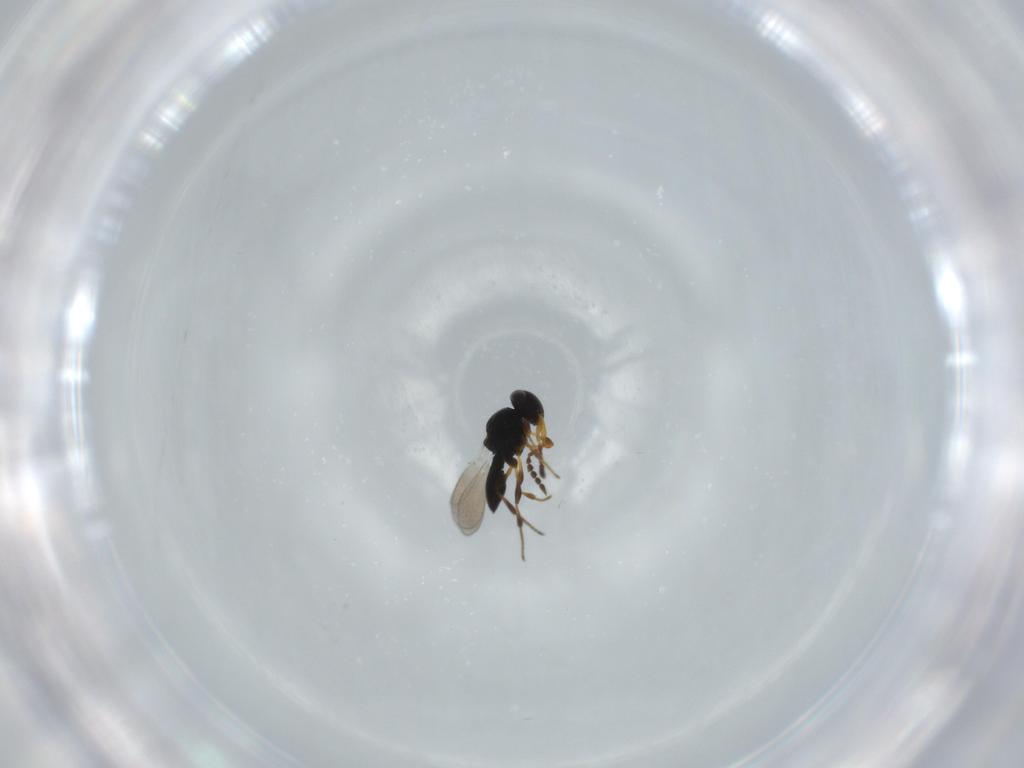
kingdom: Animalia
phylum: Arthropoda
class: Insecta
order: Hymenoptera
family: Platygastridae
